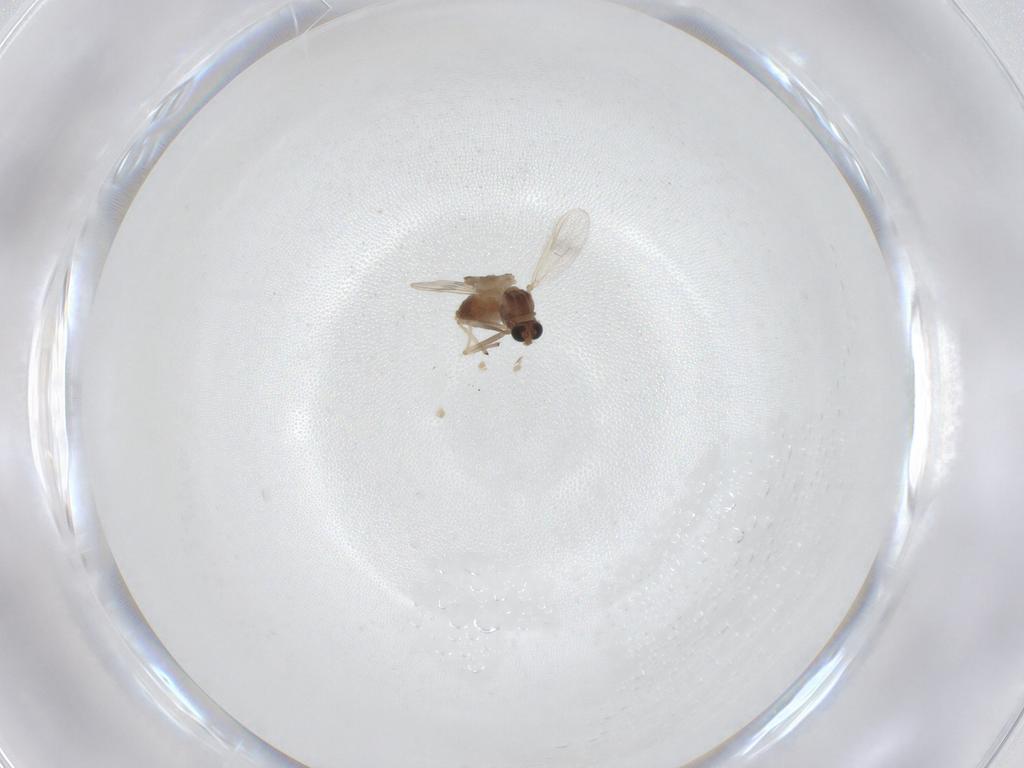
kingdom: Animalia
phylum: Arthropoda
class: Insecta
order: Diptera
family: Chironomidae
